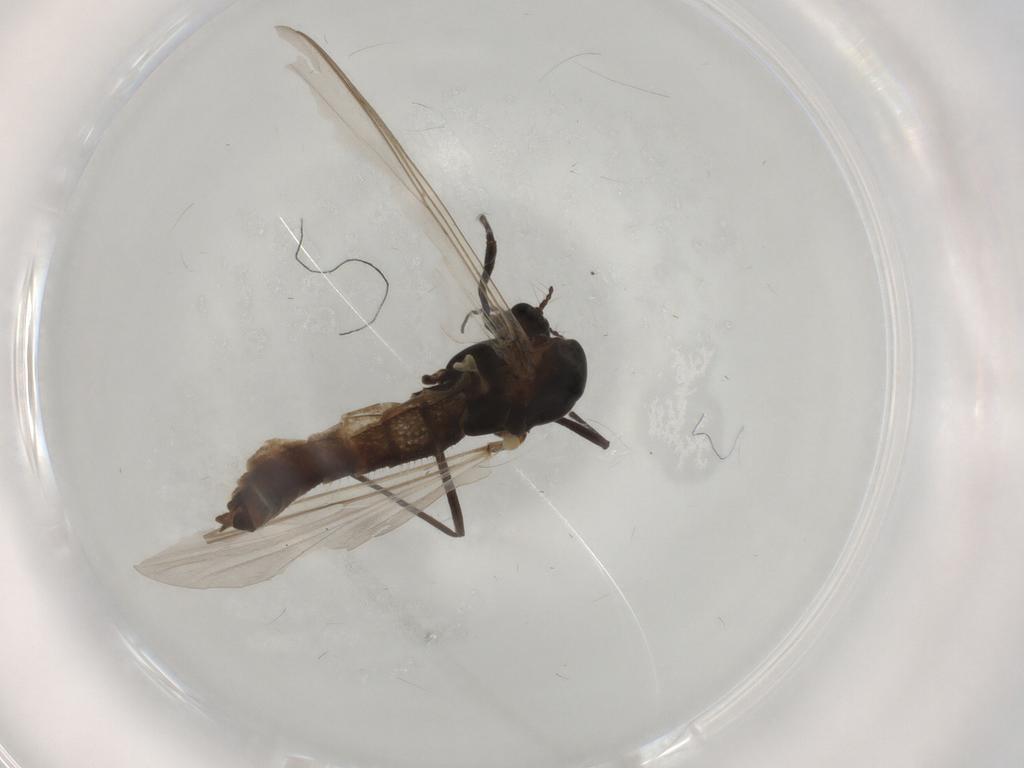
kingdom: Animalia
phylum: Arthropoda
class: Insecta
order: Diptera
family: Chironomidae
